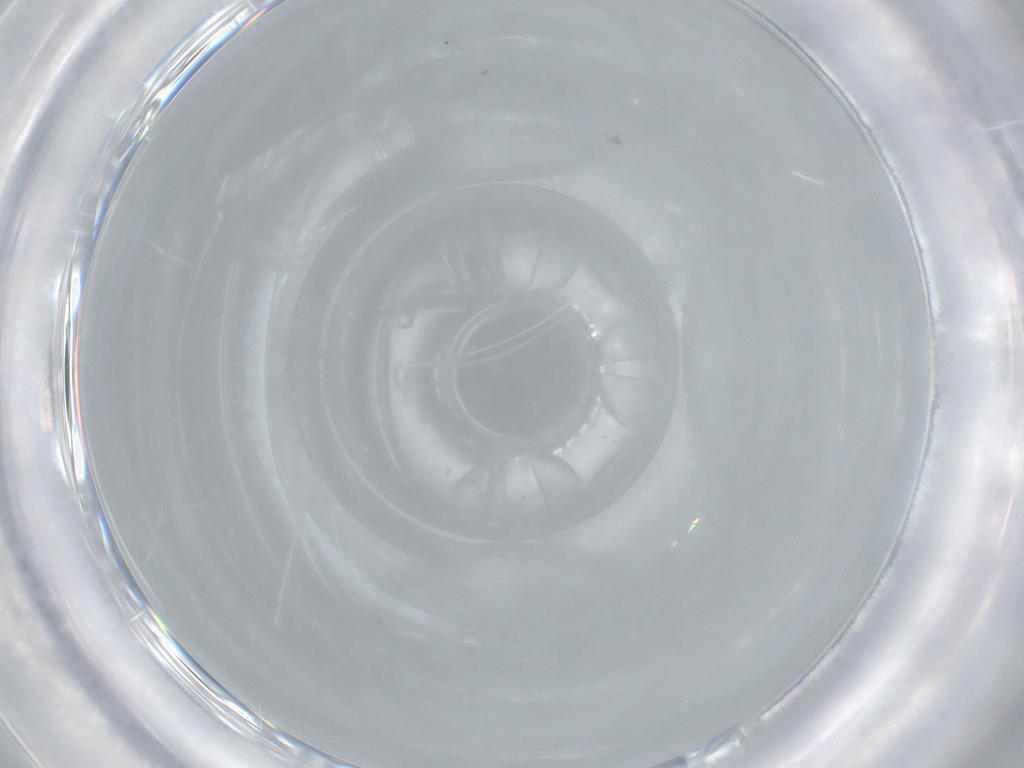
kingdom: Animalia
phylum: Arthropoda
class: Insecta
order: Diptera
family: Cecidomyiidae
